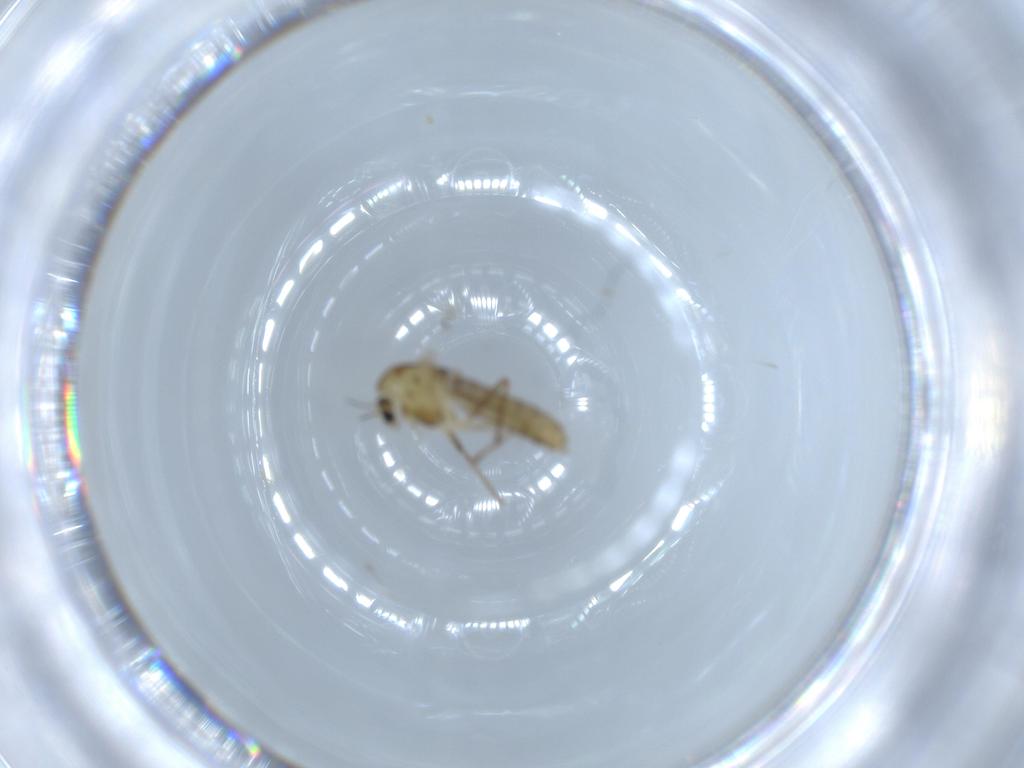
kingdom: Animalia
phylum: Arthropoda
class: Insecta
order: Diptera
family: Chironomidae
